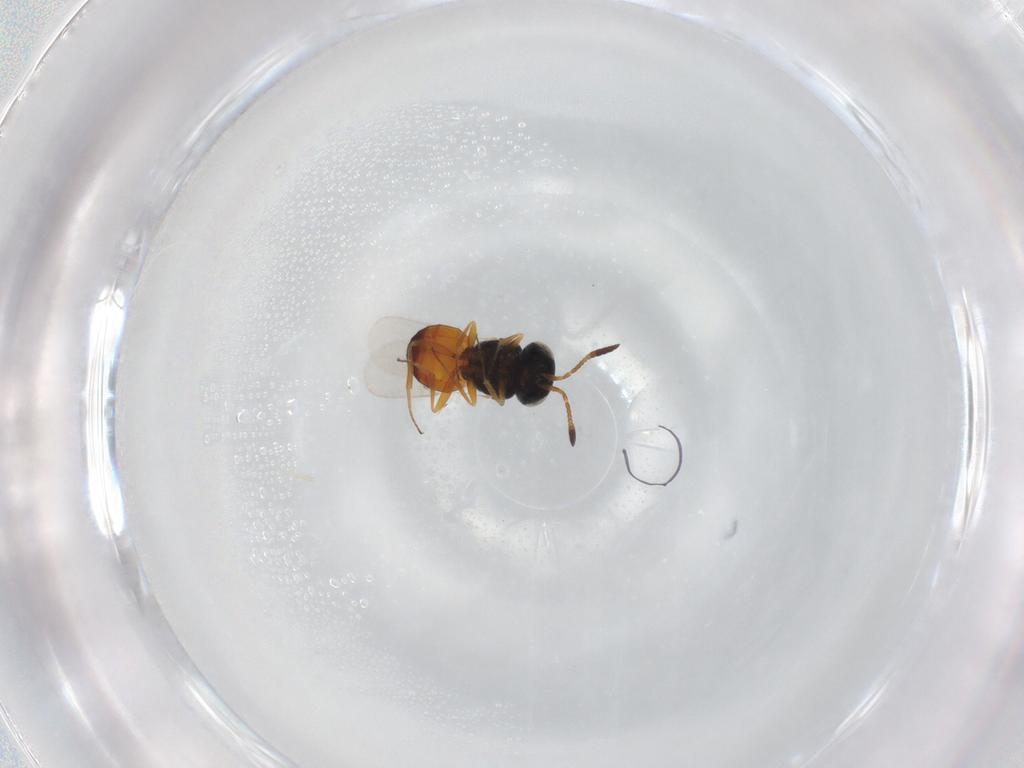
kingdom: Animalia
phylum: Arthropoda
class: Insecta
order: Hymenoptera
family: Scelionidae
